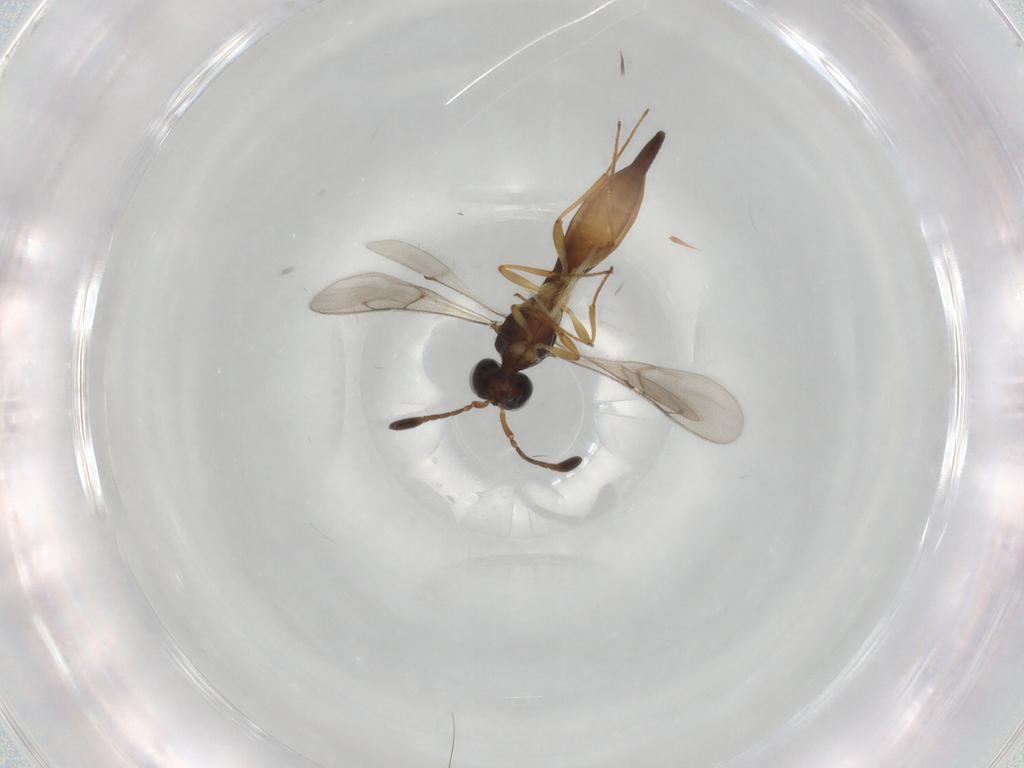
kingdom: Animalia
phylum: Arthropoda
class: Insecta
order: Hymenoptera
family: Scelionidae
